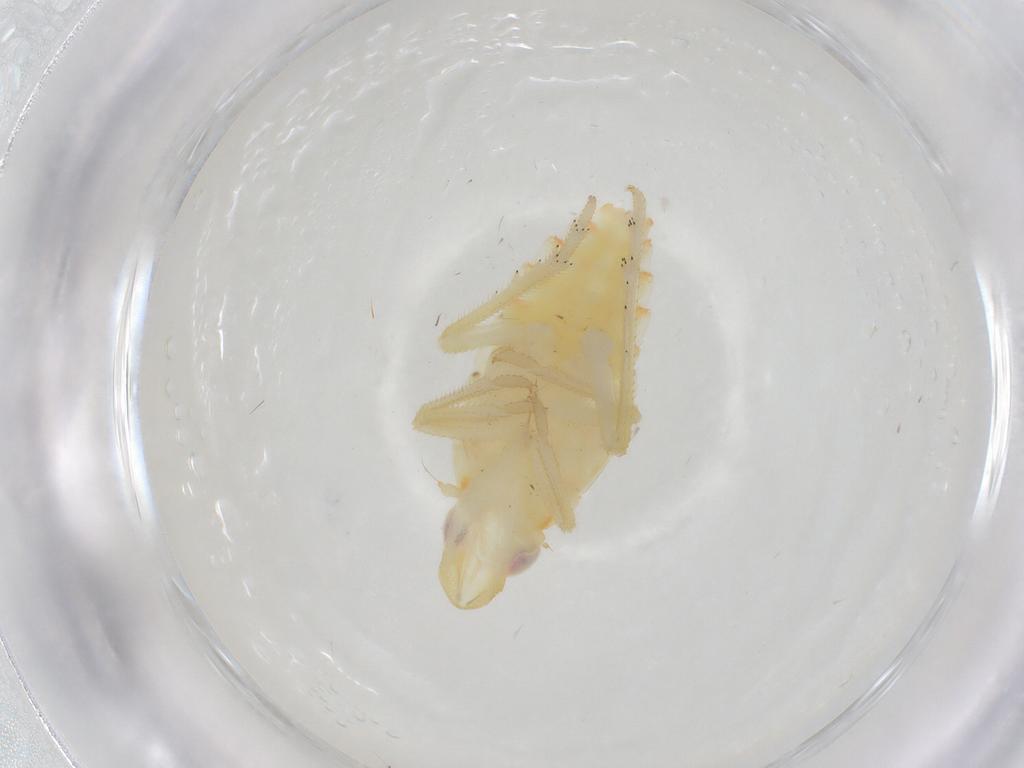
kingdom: Animalia
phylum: Arthropoda
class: Insecta
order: Hemiptera
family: Tropiduchidae
